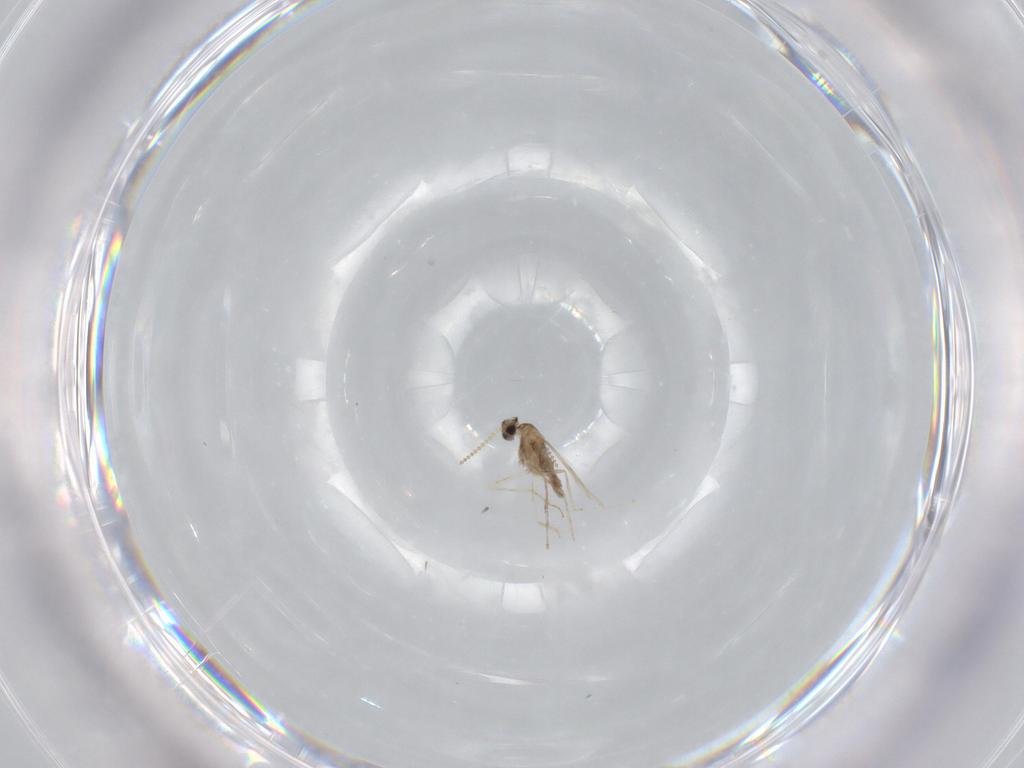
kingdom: Animalia
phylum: Arthropoda
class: Insecta
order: Diptera
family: Cecidomyiidae
